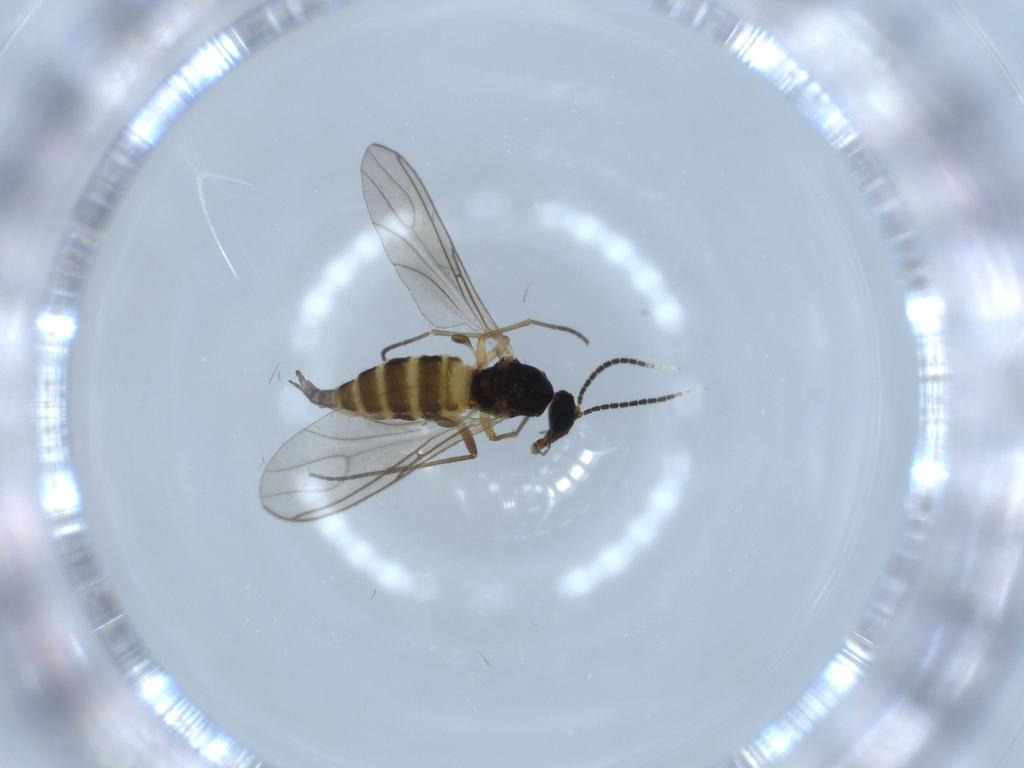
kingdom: Animalia
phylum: Arthropoda
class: Insecta
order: Diptera
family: Sciaridae
